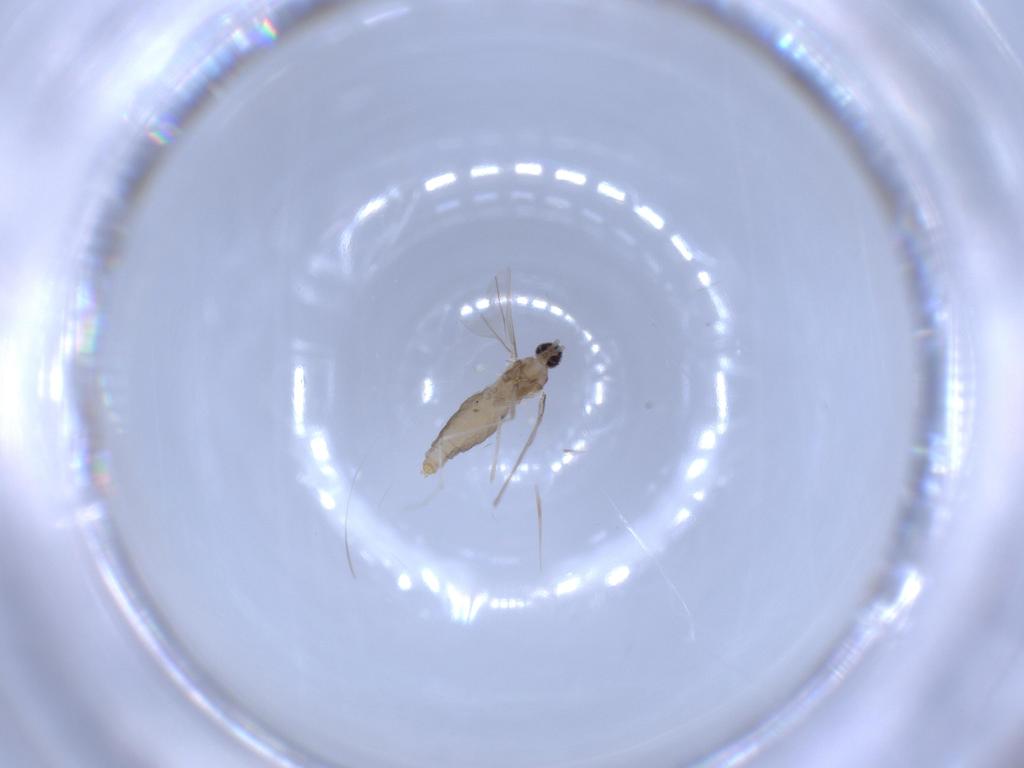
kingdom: Animalia
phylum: Arthropoda
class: Insecta
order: Diptera
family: Cecidomyiidae
